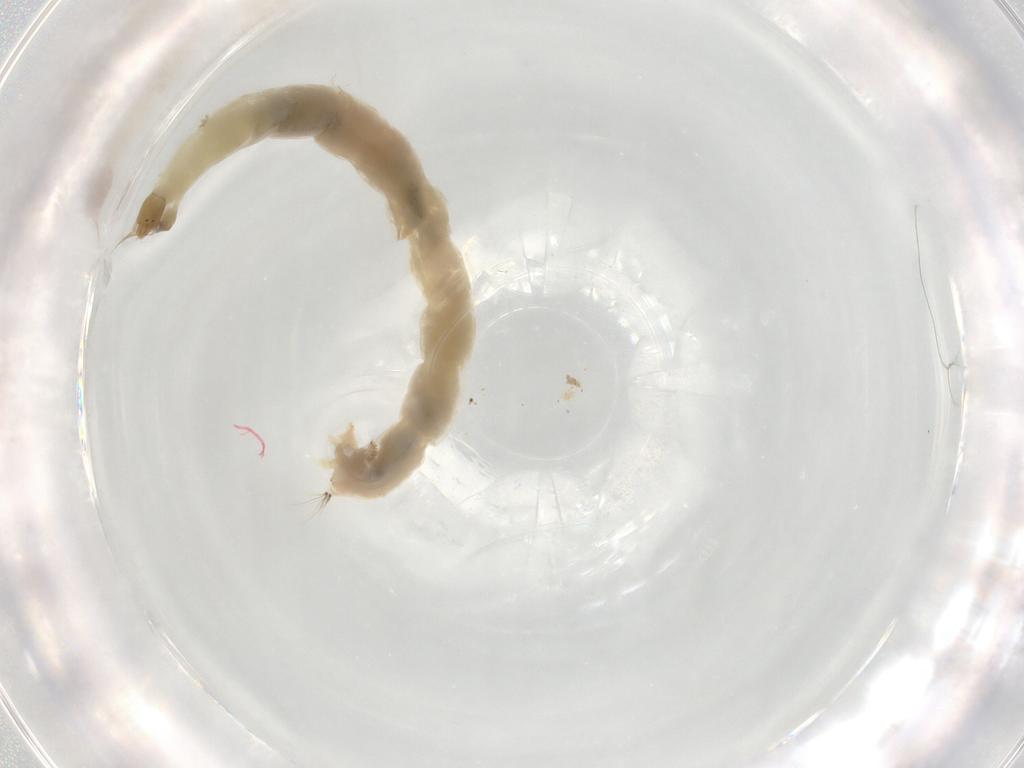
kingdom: Animalia
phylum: Arthropoda
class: Insecta
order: Diptera
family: Chironomidae
